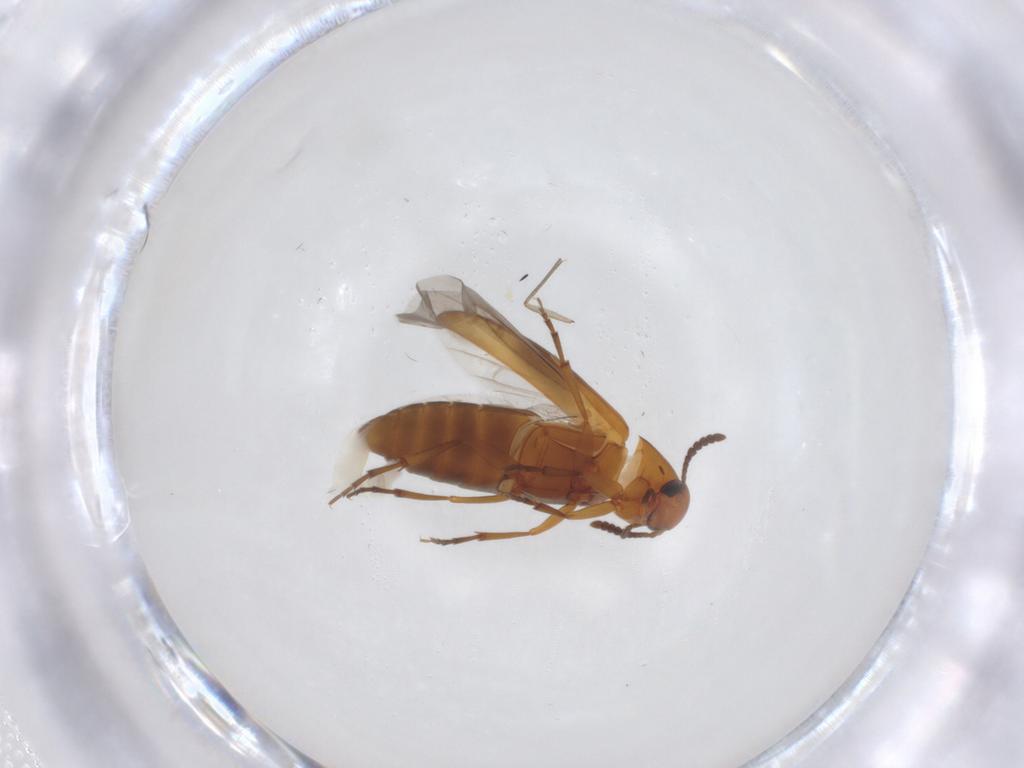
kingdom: Animalia
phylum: Arthropoda
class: Insecta
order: Coleoptera
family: Scraptiidae
